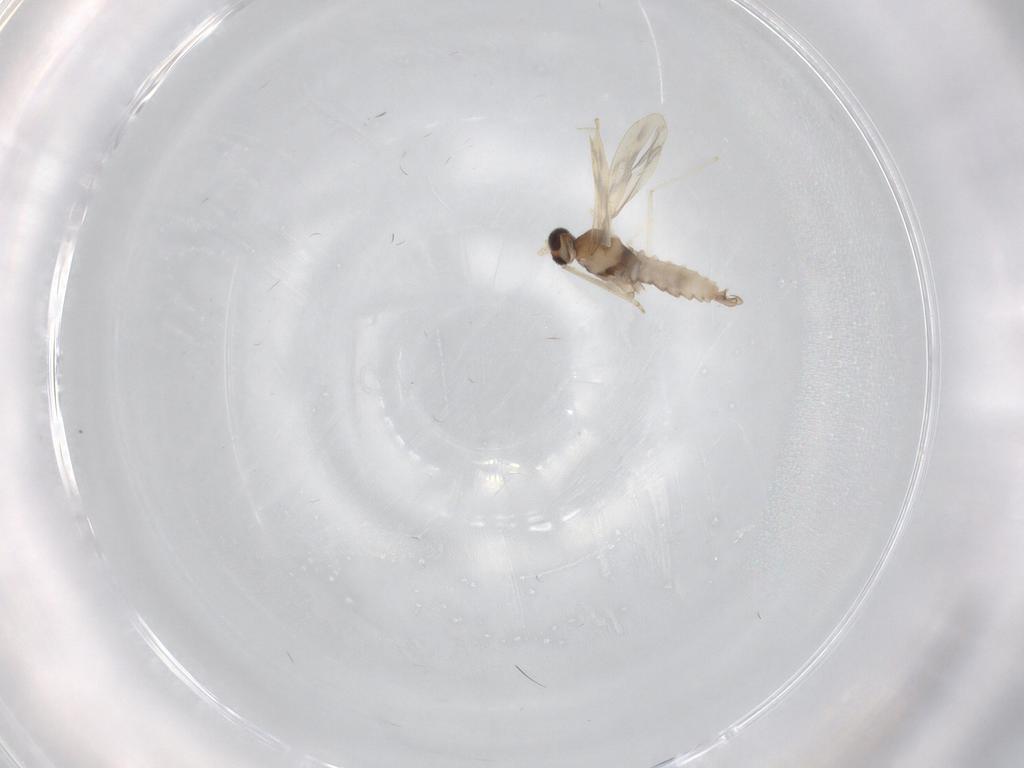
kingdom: Animalia
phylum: Arthropoda
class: Insecta
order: Diptera
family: Cecidomyiidae
